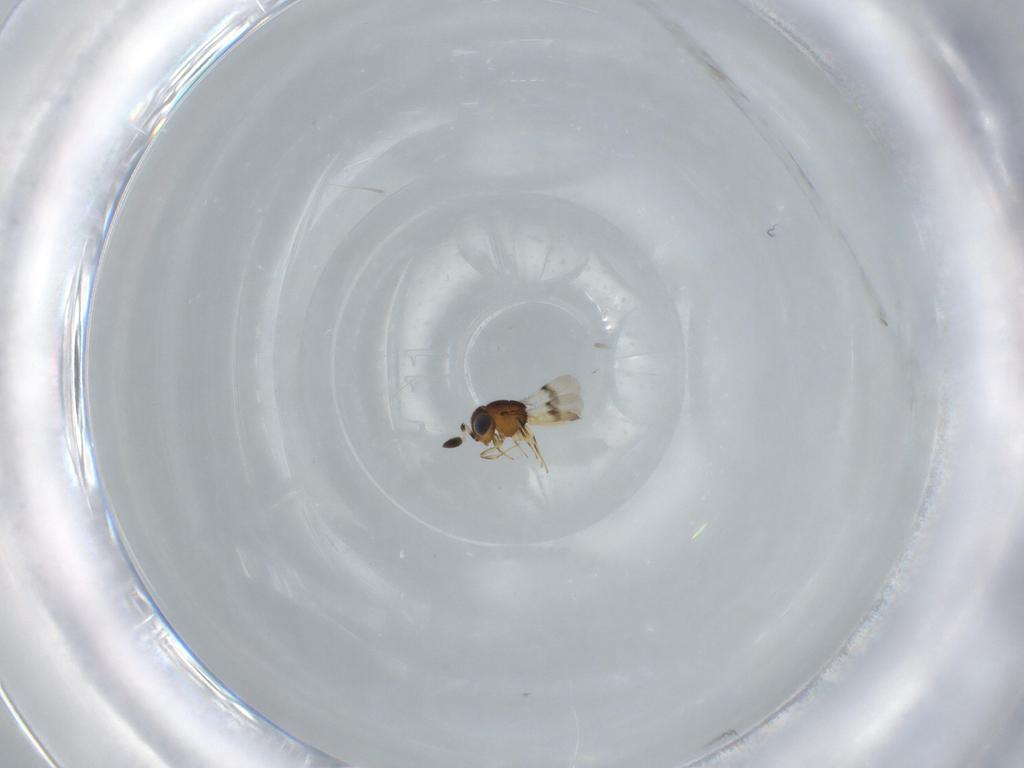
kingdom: Animalia
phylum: Arthropoda
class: Arachnida
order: Araneae
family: Pholcidae
